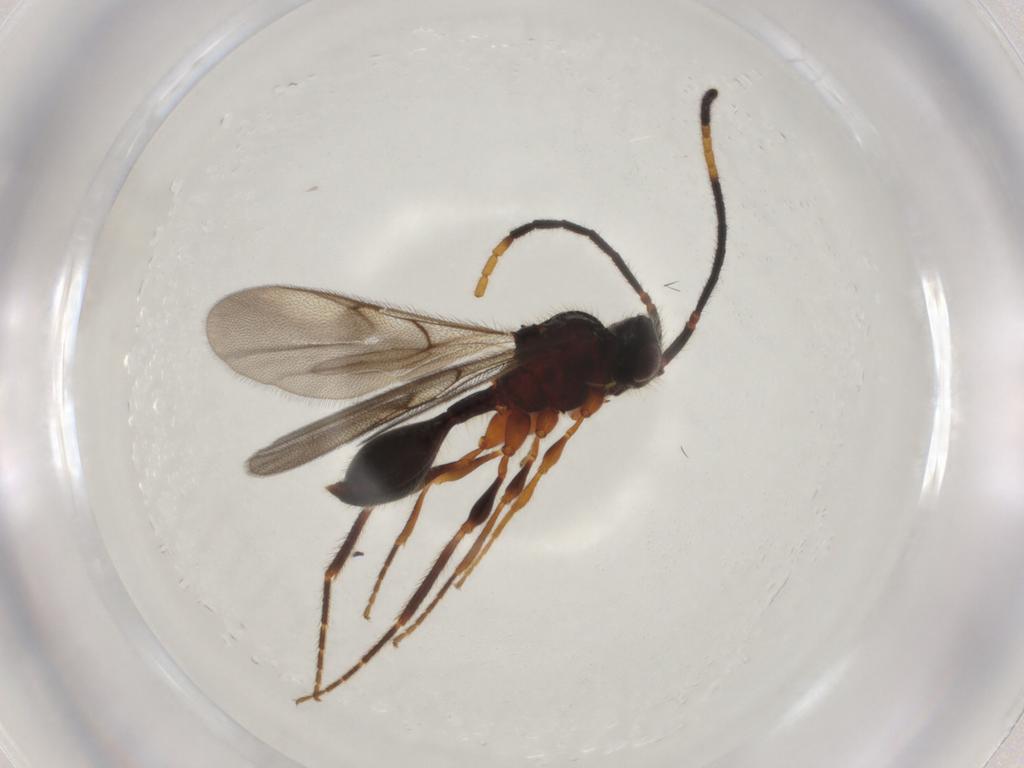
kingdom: Animalia
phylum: Arthropoda
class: Insecta
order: Hymenoptera
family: Diapriidae
